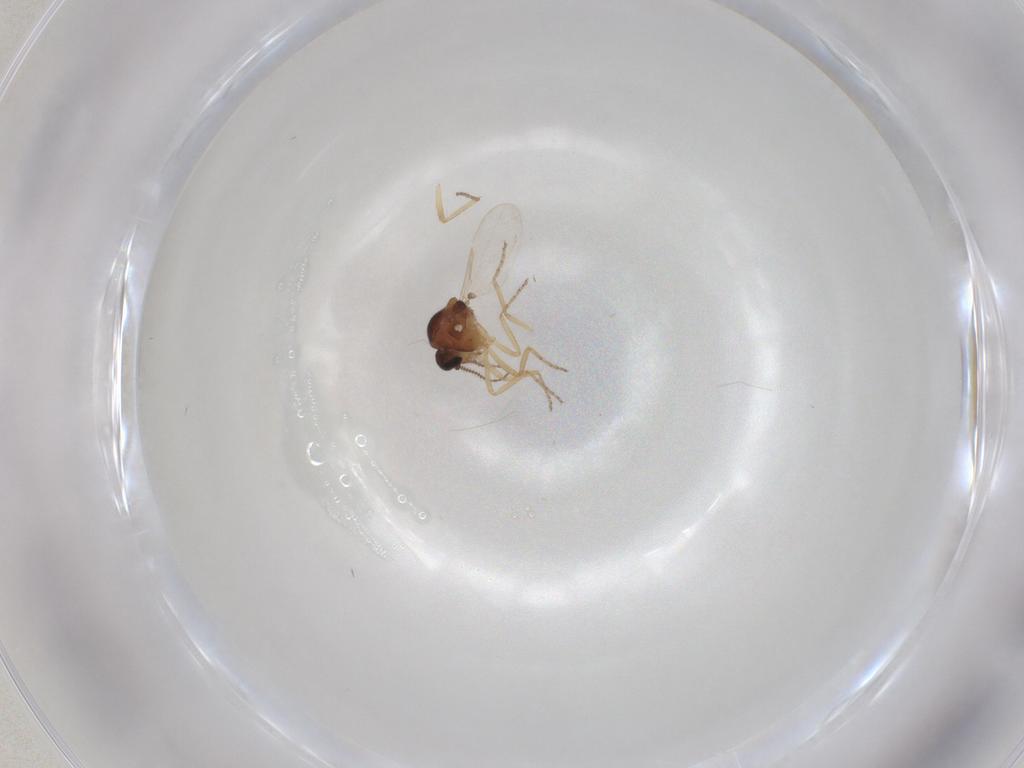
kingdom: Animalia
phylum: Arthropoda
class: Insecta
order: Diptera
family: Ceratopogonidae
